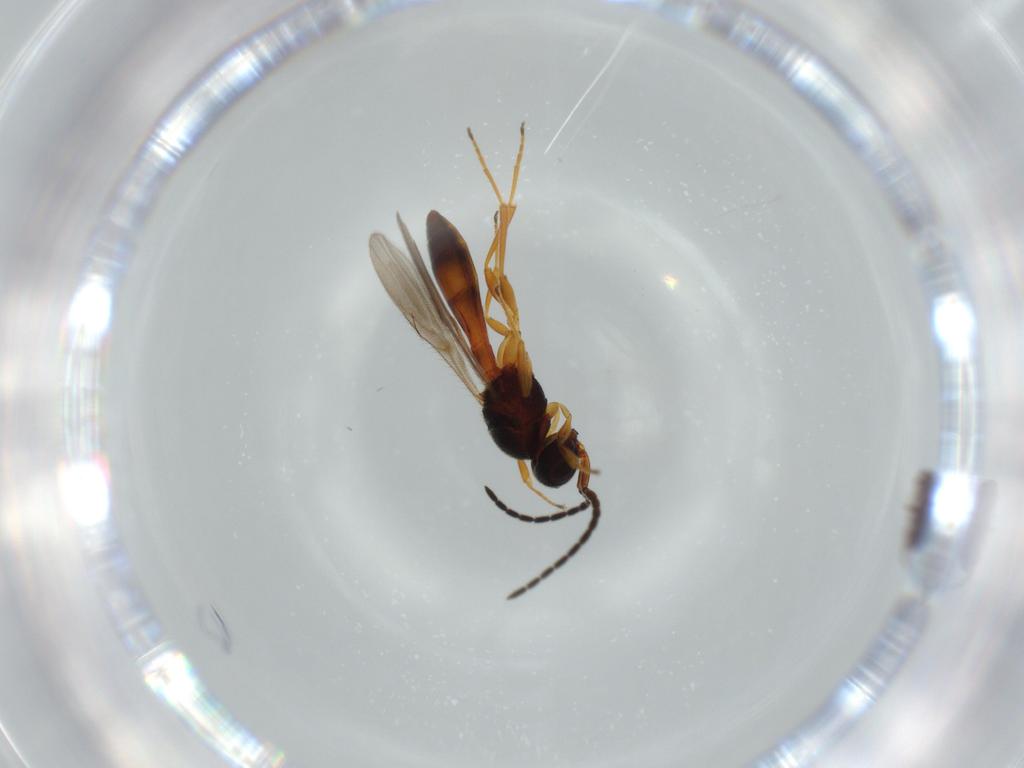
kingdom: Animalia
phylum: Arthropoda
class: Insecta
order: Hymenoptera
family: Scelionidae
